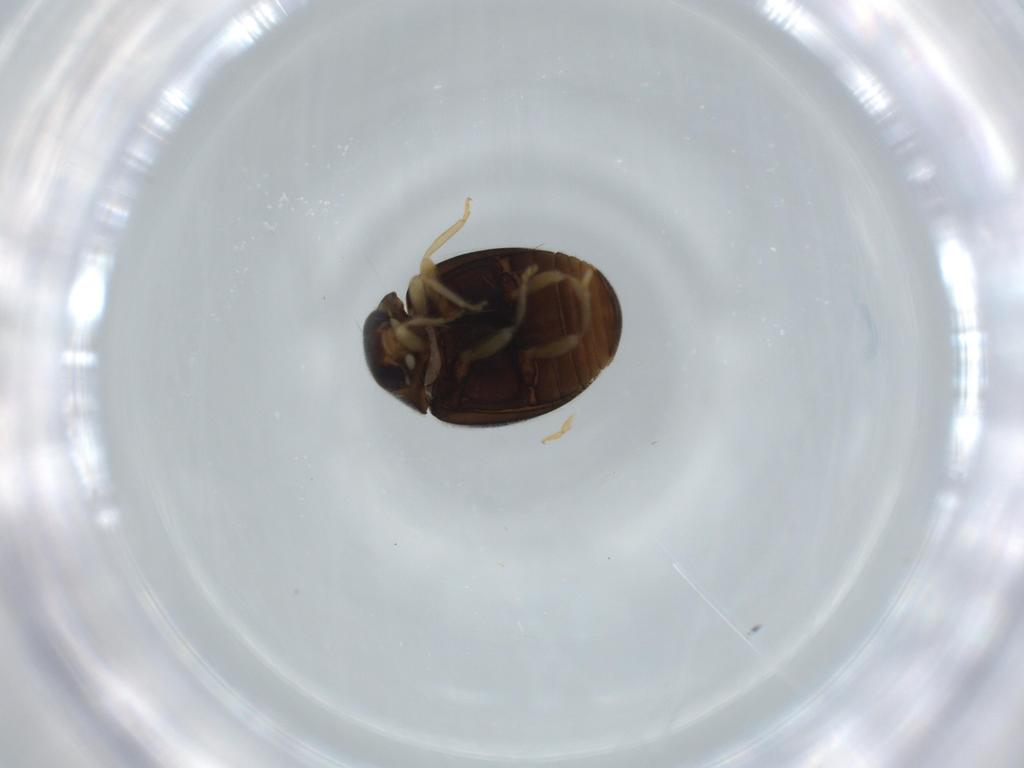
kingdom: Animalia
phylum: Arthropoda
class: Insecta
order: Coleoptera
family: Coccinellidae
